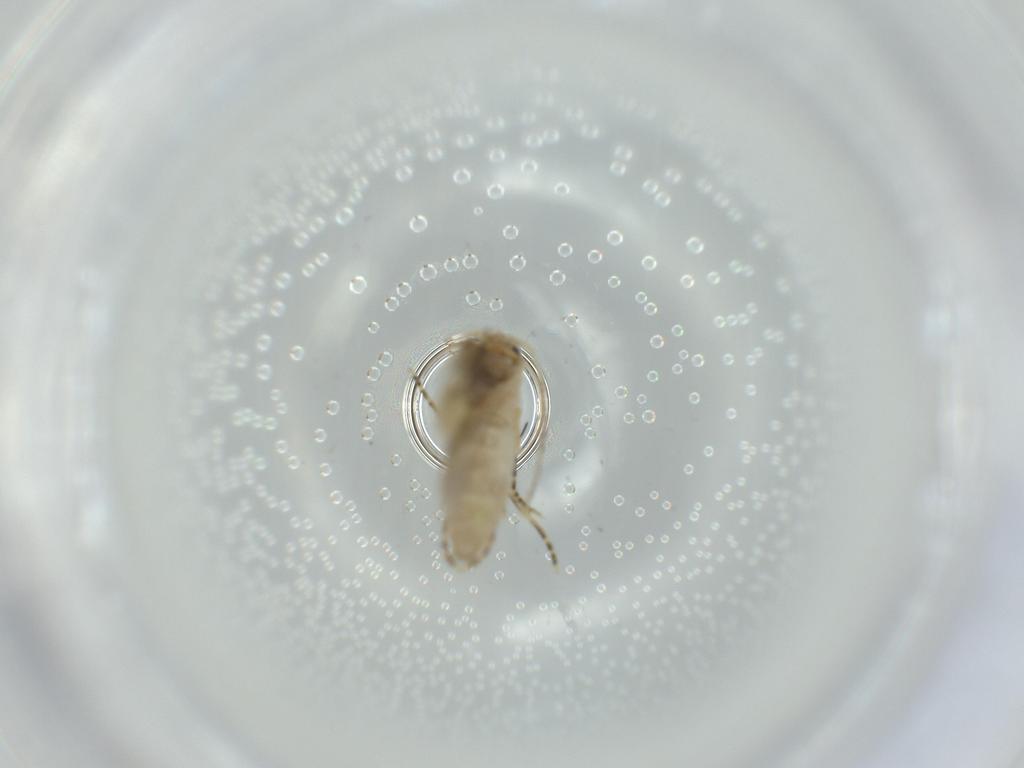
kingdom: Animalia
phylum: Arthropoda
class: Insecta
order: Lepidoptera
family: Bucculatricidae
